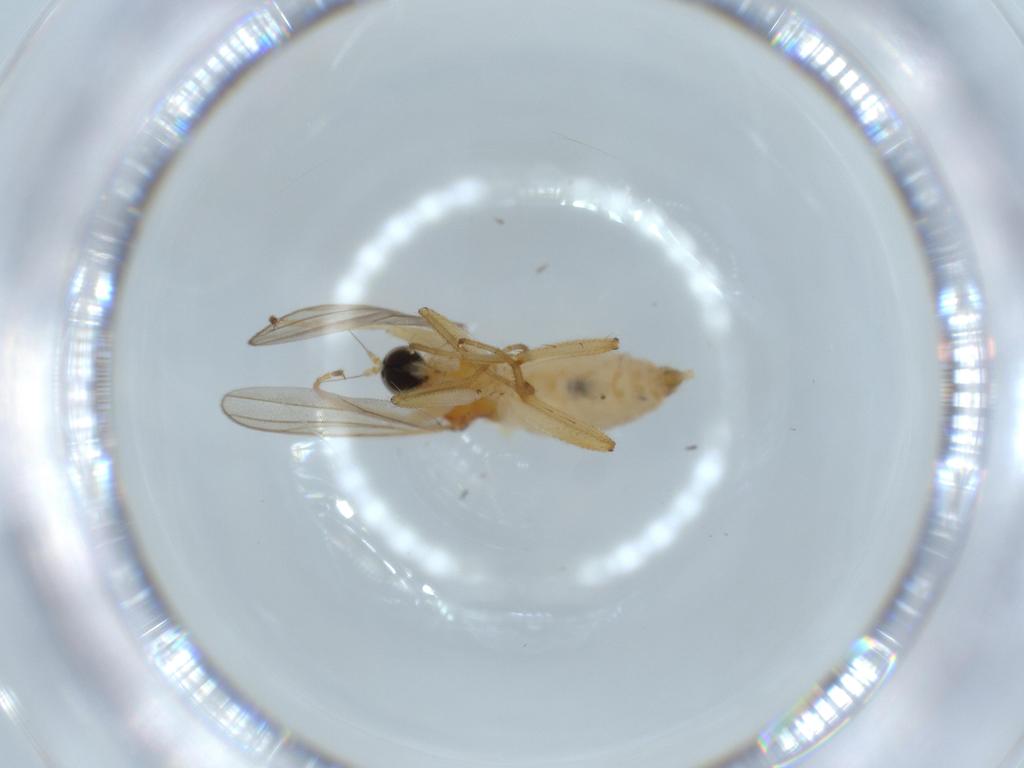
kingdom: Animalia
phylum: Arthropoda
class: Insecta
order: Diptera
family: Hybotidae
